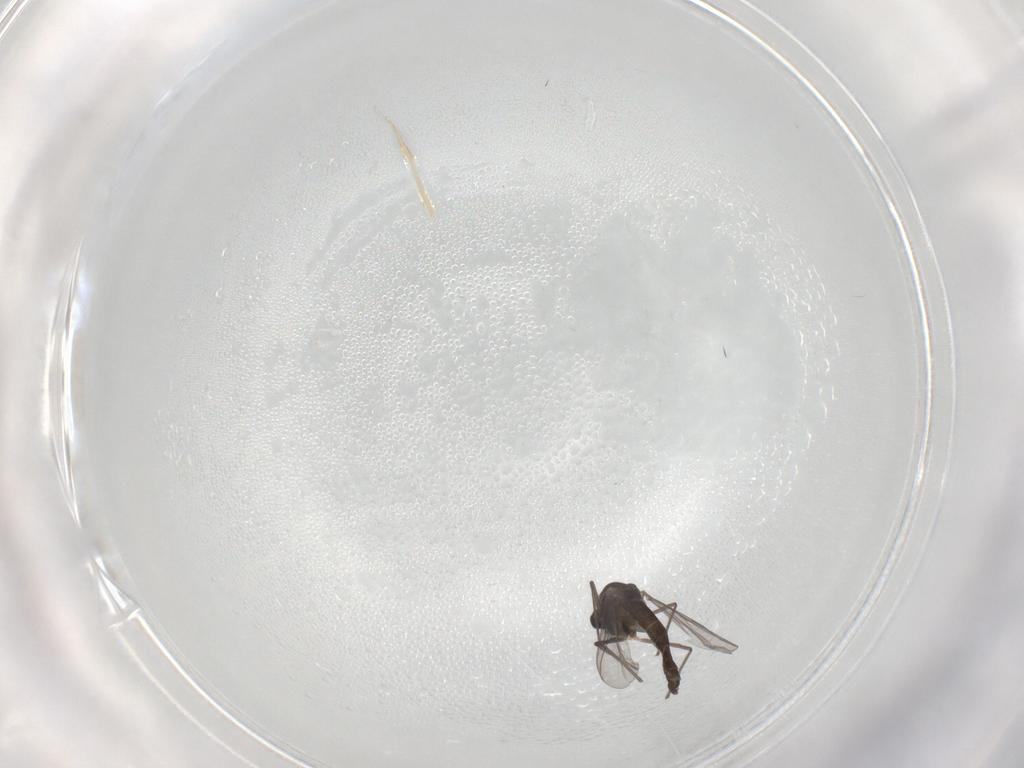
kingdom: Animalia
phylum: Arthropoda
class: Insecta
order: Diptera
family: Chironomidae
